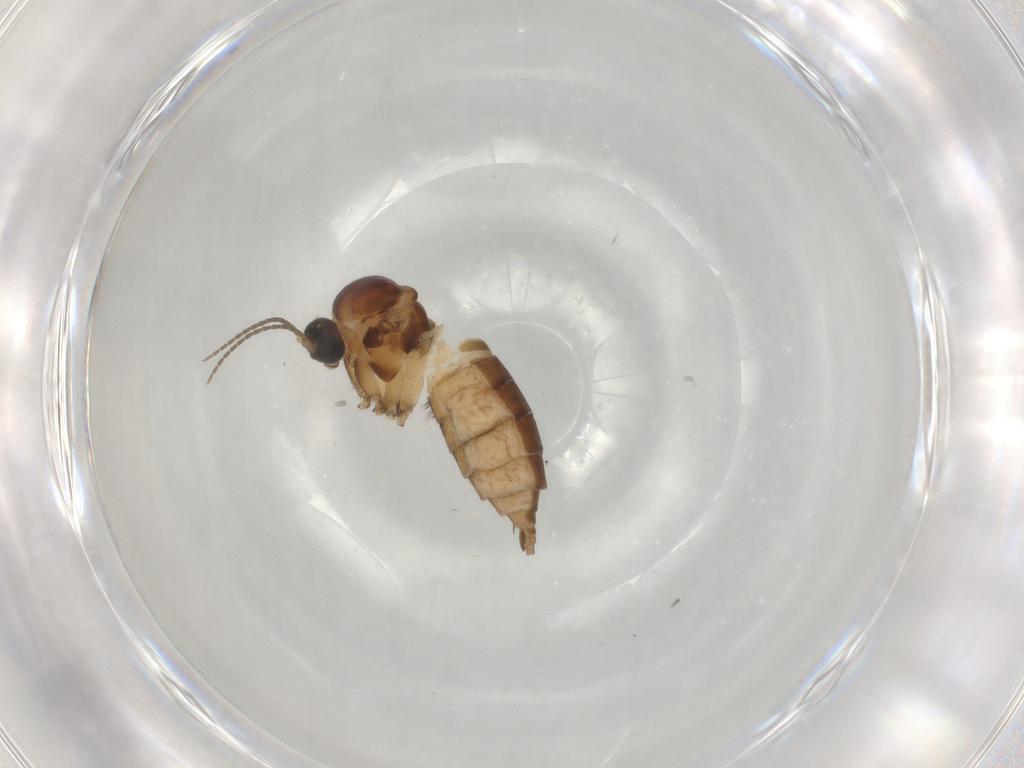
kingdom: Animalia
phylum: Arthropoda
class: Insecta
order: Diptera
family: Sciaridae
